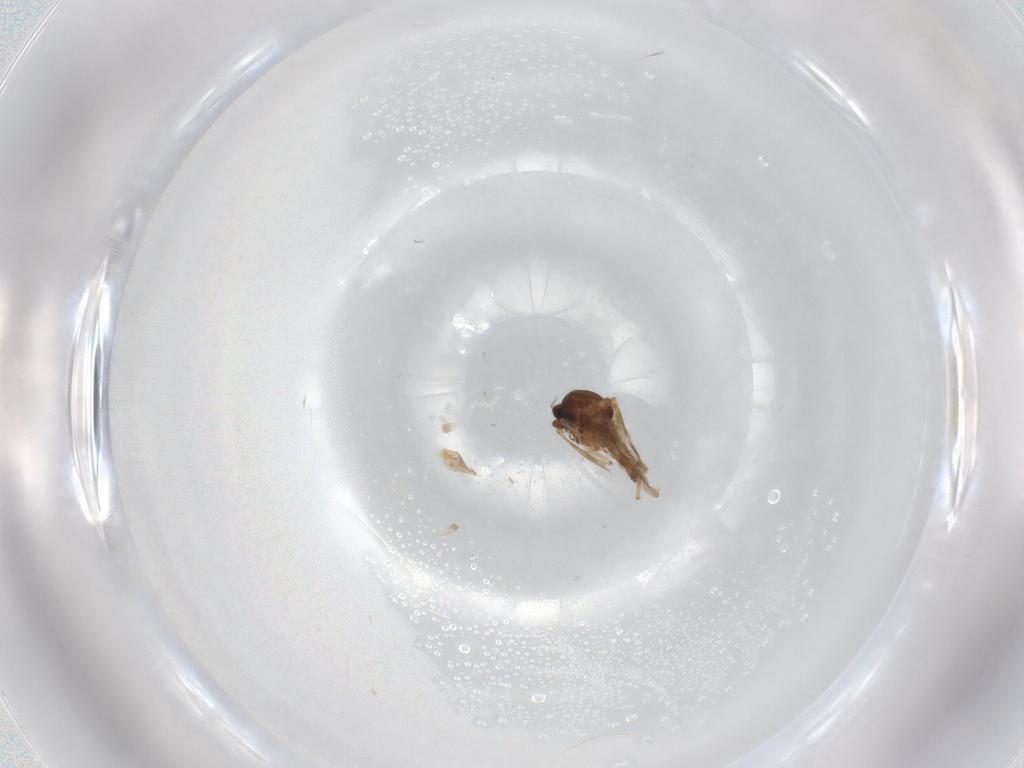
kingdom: Animalia
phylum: Arthropoda
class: Insecta
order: Diptera
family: Ceratopogonidae
